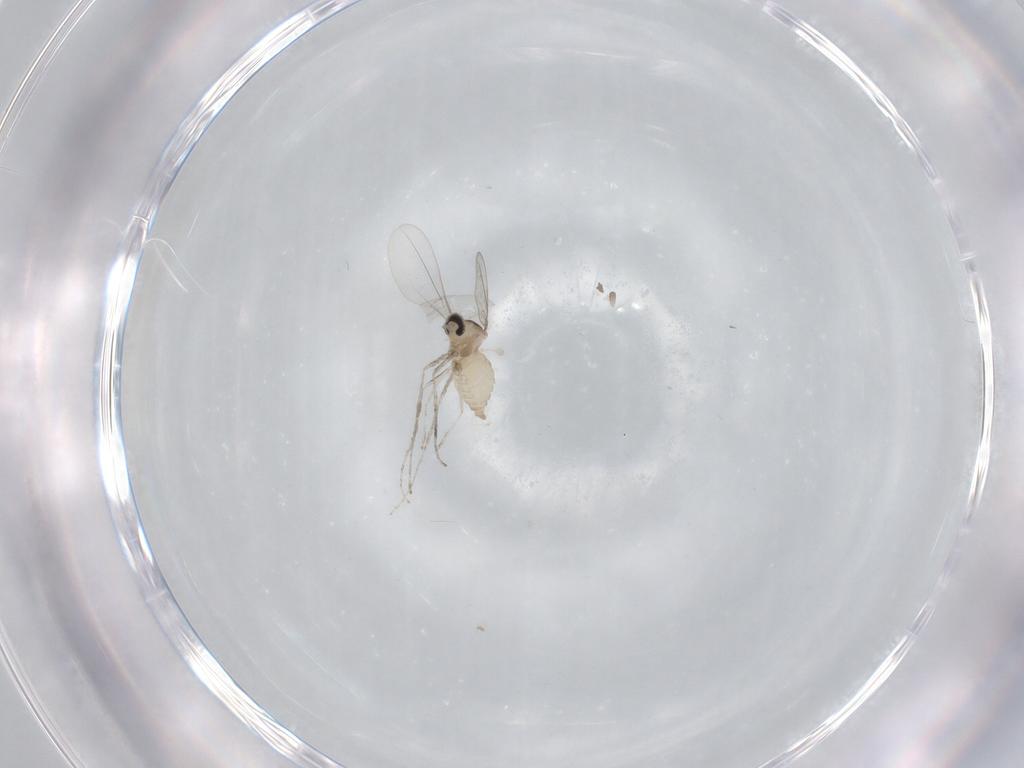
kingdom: Animalia
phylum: Arthropoda
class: Insecta
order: Diptera
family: Cecidomyiidae
